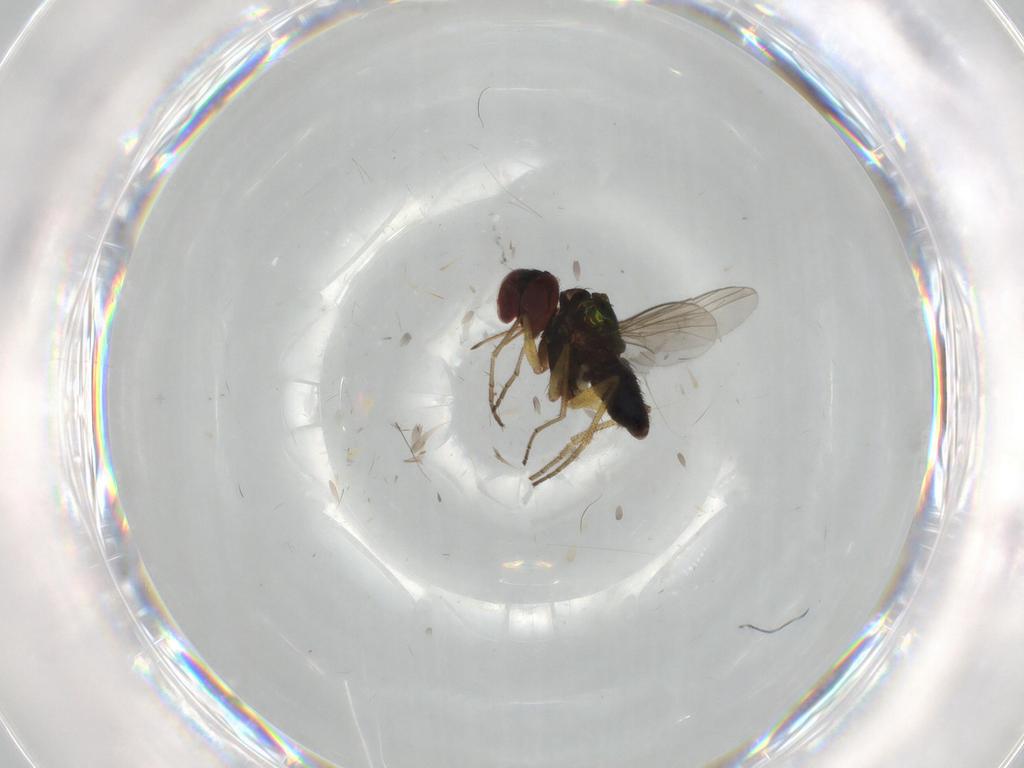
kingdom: Animalia
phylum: Arthropoda
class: Insecta
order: Diptera
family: Dolichopodidae
